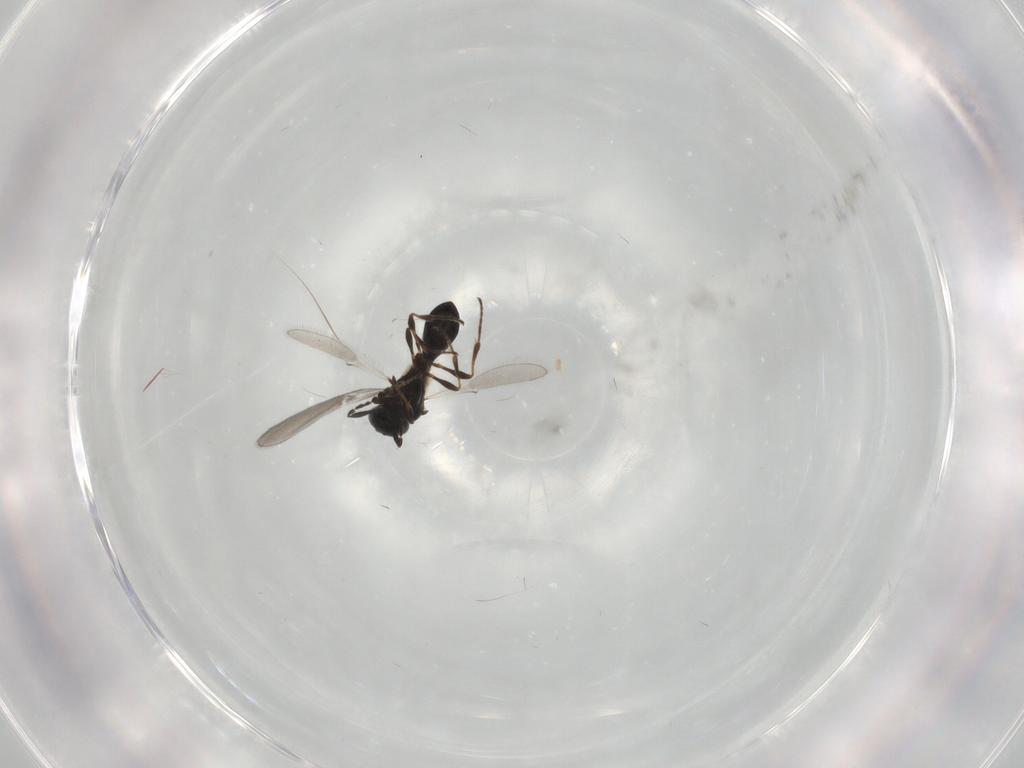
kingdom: Animalia
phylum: Arthropoda
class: Insecta
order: Hymenoptera
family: Platygastridae
